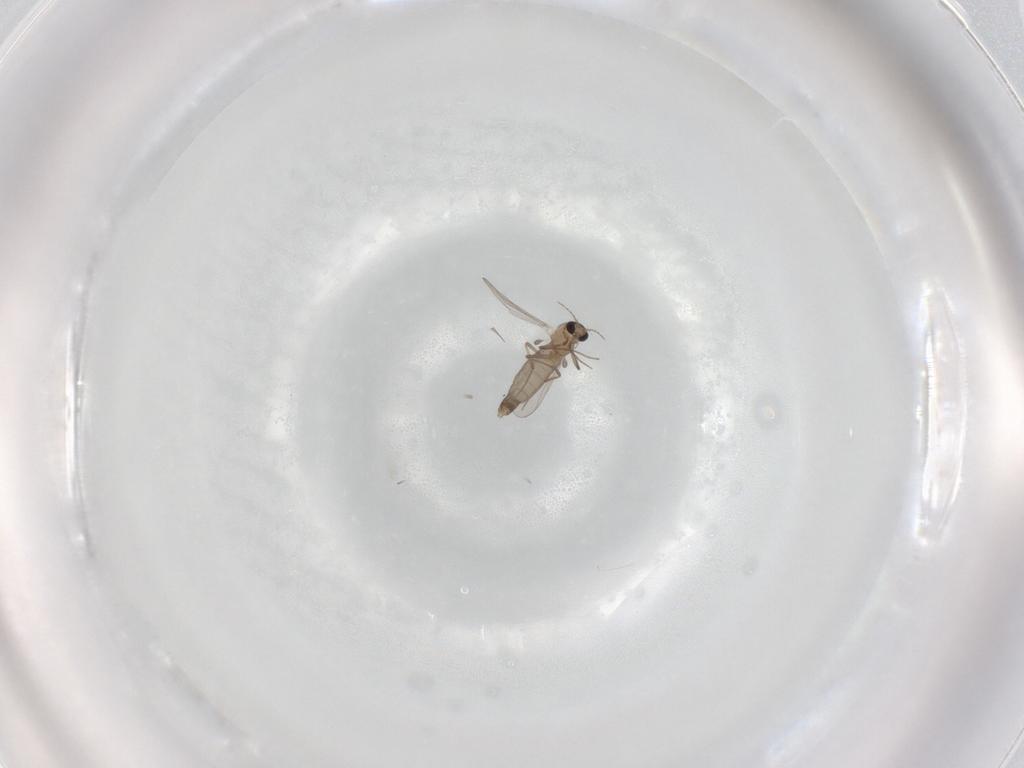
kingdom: Animalia
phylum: Arthropoda
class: Insecta
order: Diptera
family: Chironomidae
